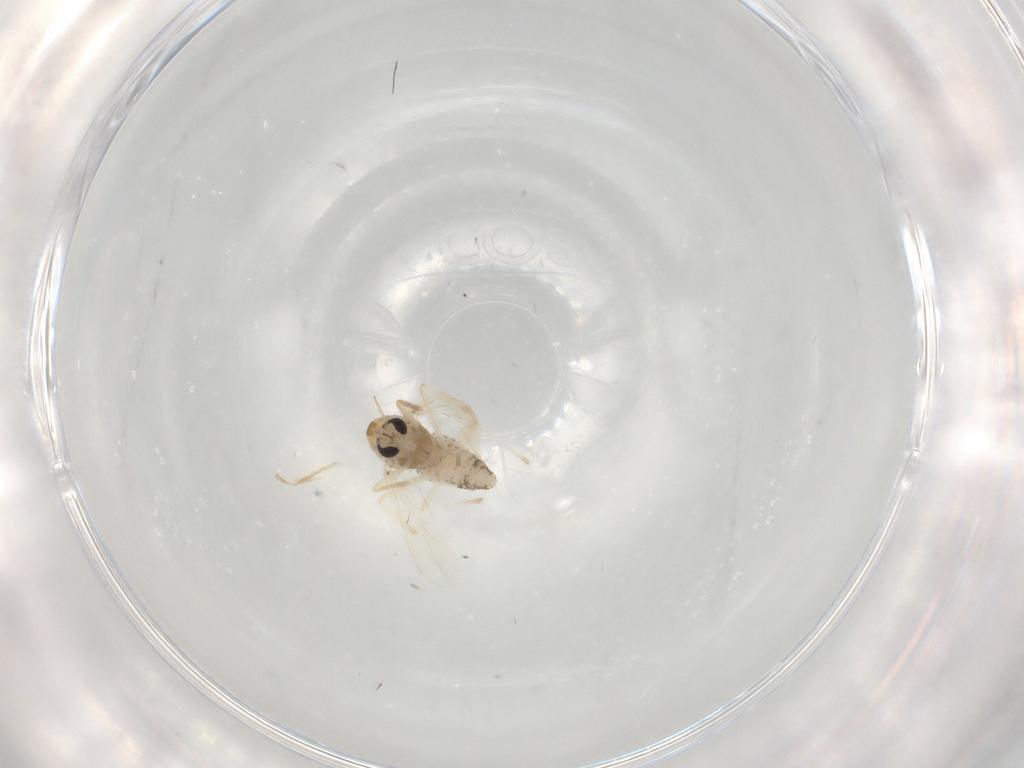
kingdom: Animalia
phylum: Arthropoda
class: Insecta
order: Diptera
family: Chironomidae
